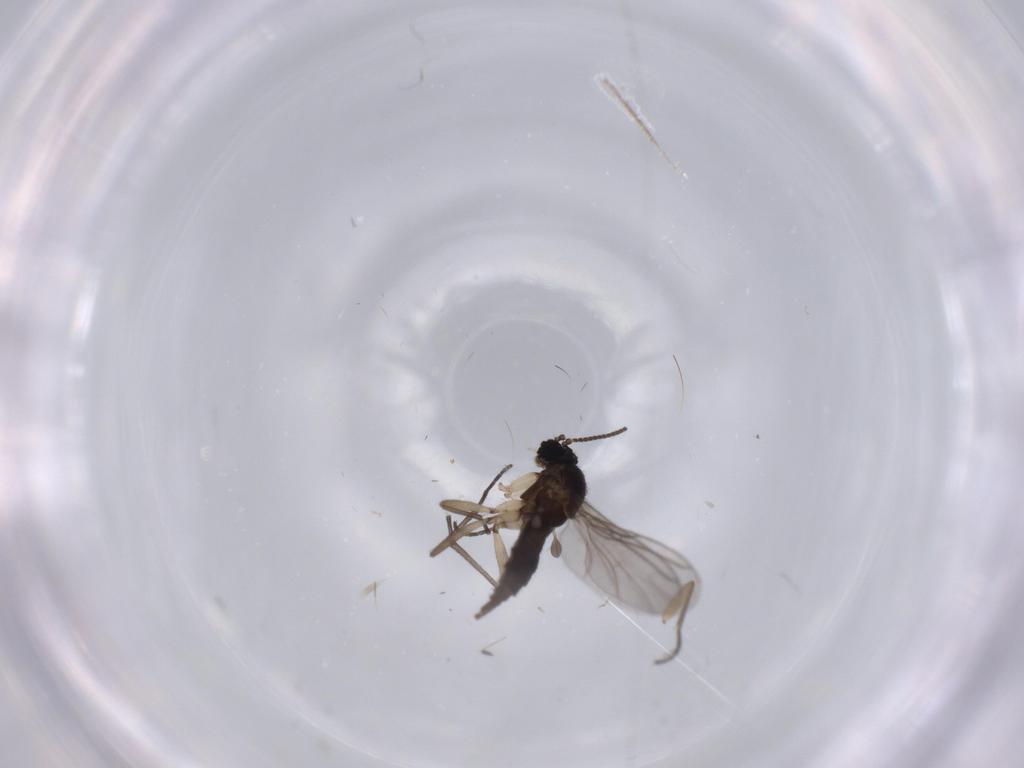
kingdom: Animalia
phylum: Arthropoda
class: Insecta
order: Diptera
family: Sciaridae
